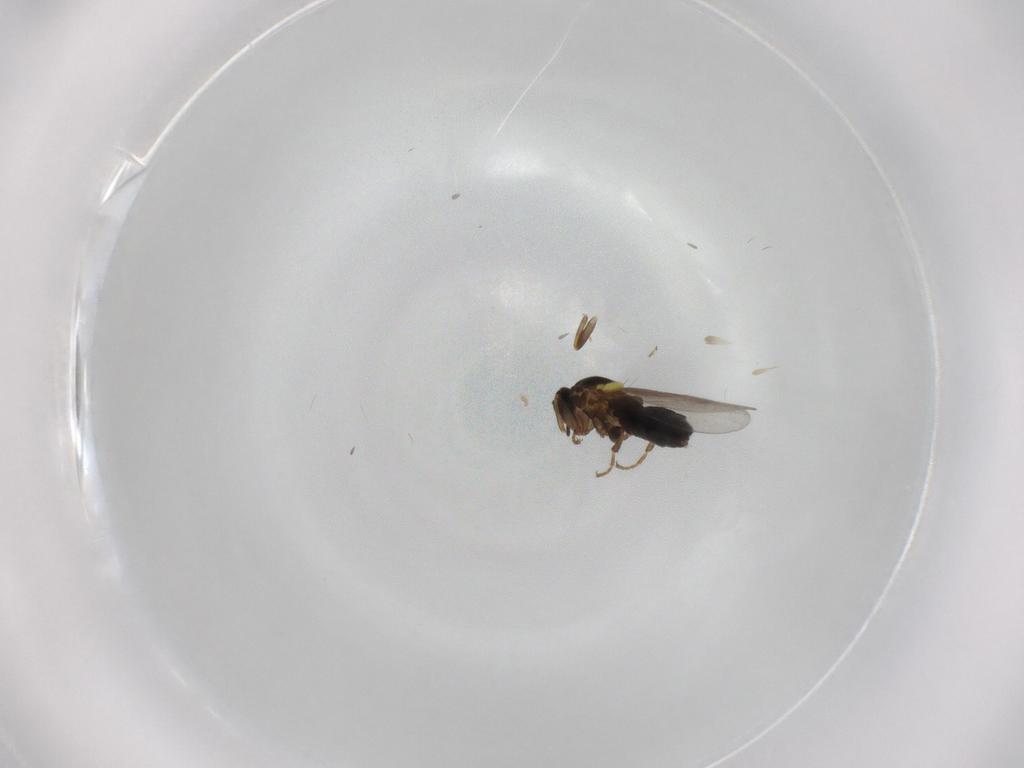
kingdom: Animalia
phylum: Arthropoda
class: Insecta
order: Diptera
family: Scatopsidae
